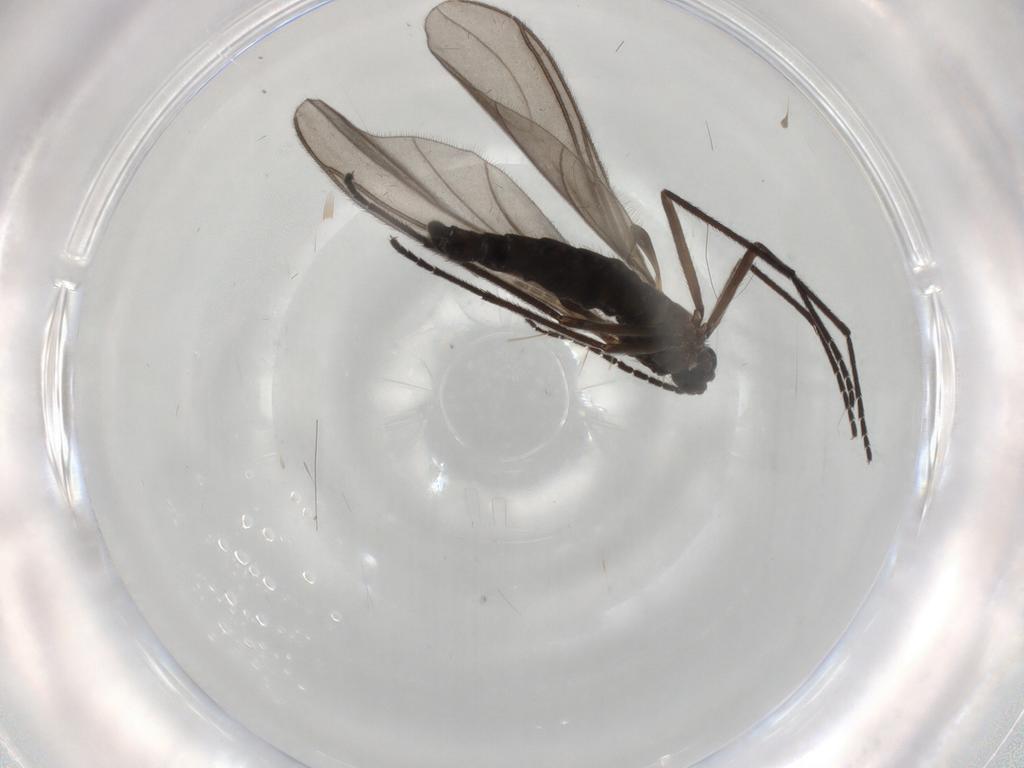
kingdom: Animalia
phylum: Arthropoda
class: Insecta
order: Diptera
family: Sciaridae
